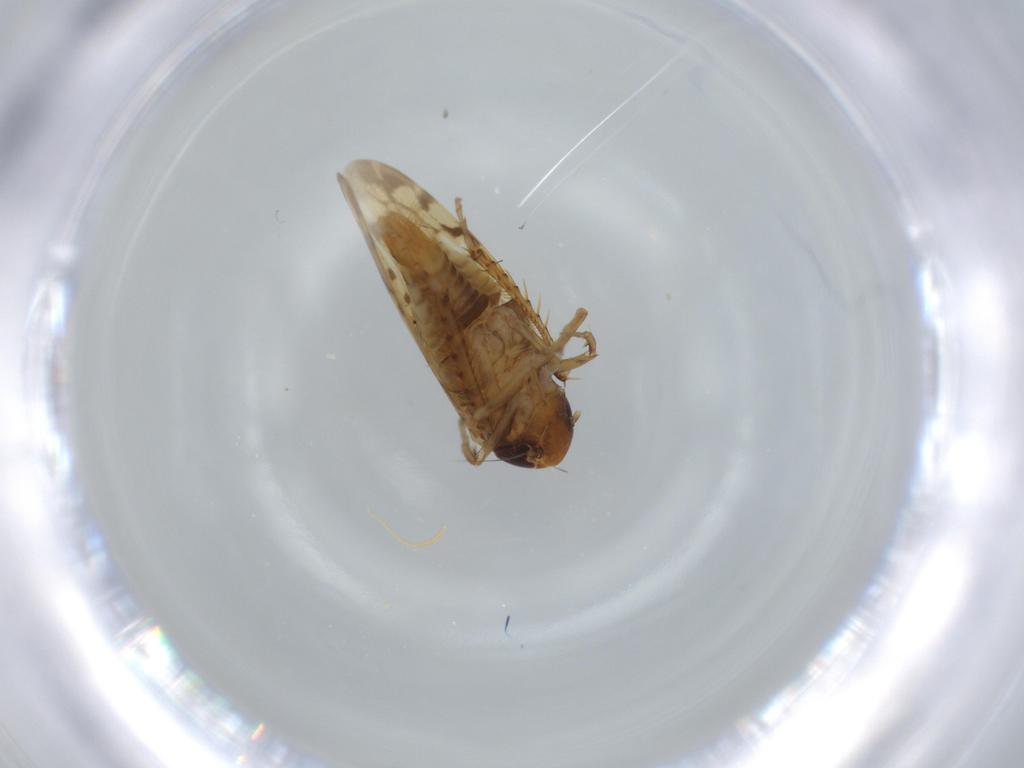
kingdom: Animalia
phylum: Arthropoda
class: Insecta
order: Hemiptera
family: Cicadellidae
